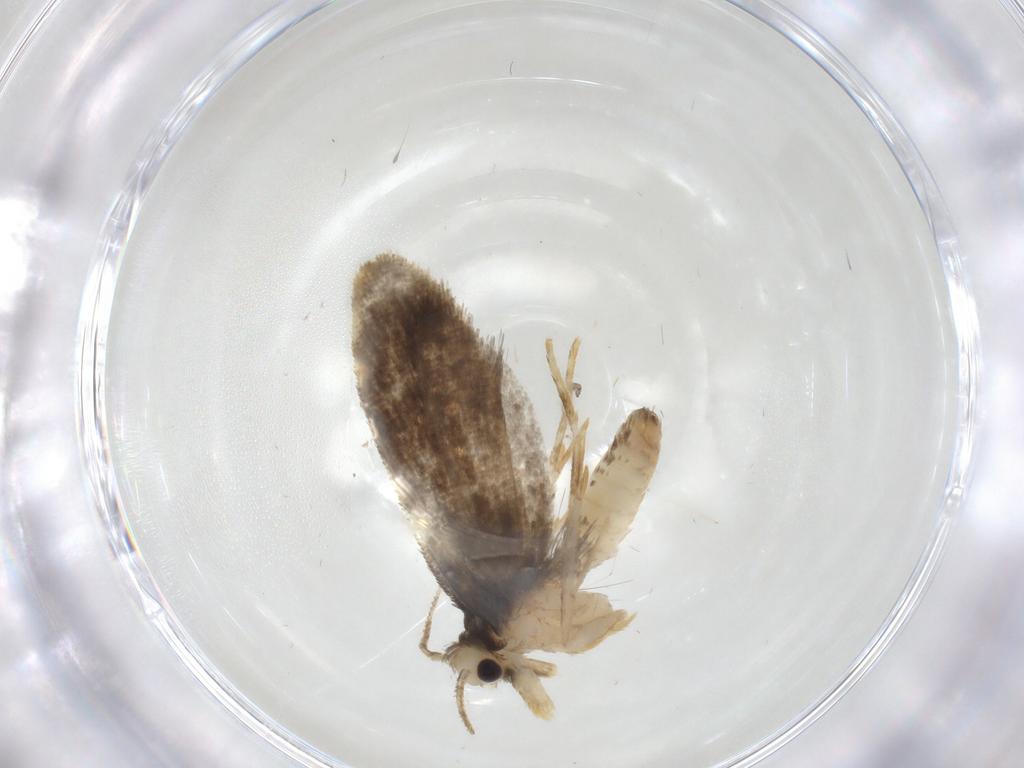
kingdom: Animalia
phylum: Arthropoda
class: Insecta
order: Lepidoptera
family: Psychidae
